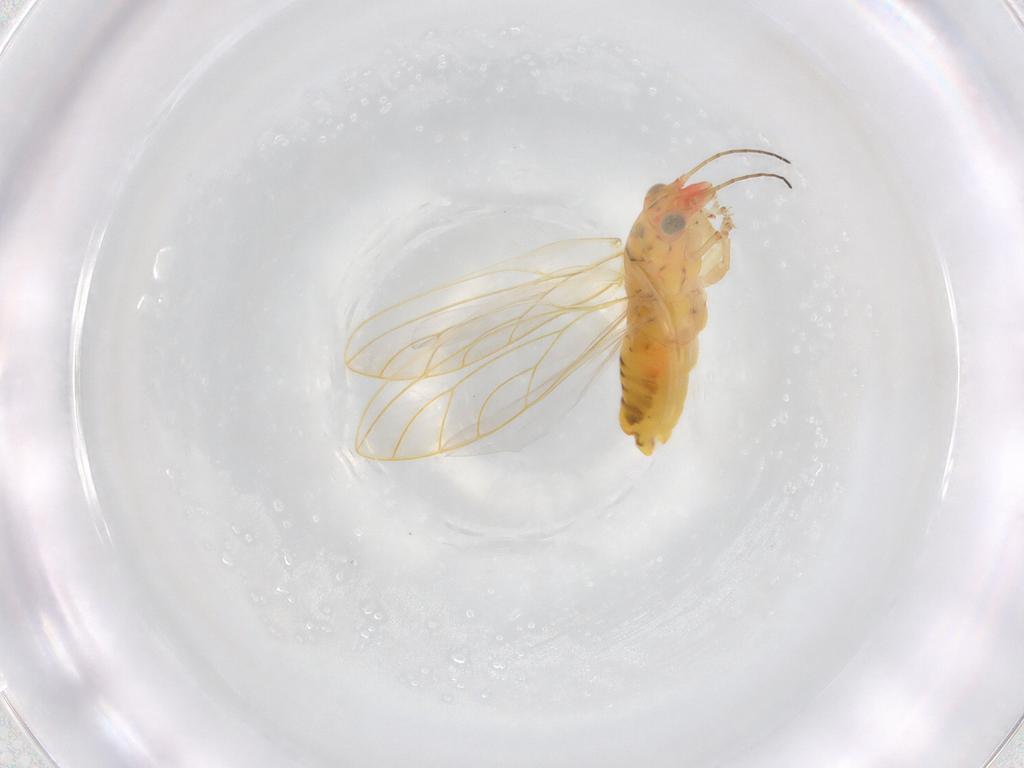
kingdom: Animalia
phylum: Arthropoda
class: Insecta
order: Hemiptera
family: Aphalaridae
